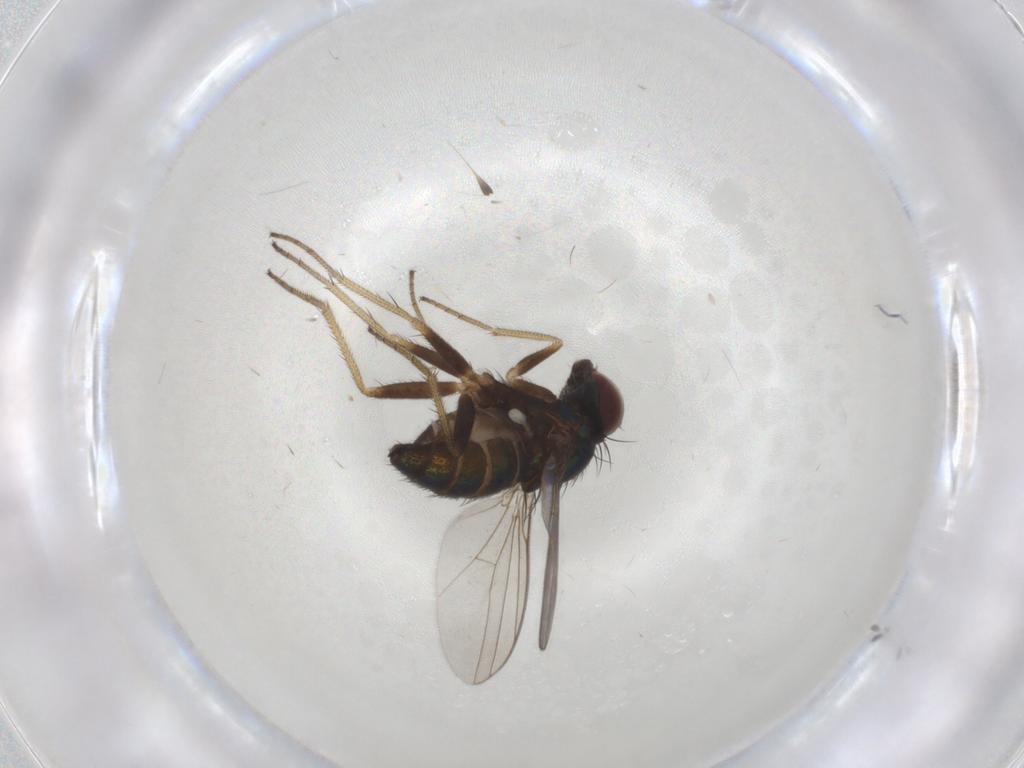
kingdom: Animalia
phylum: Arthropoda
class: Insecta
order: Diptera
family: Dolichopodidae
